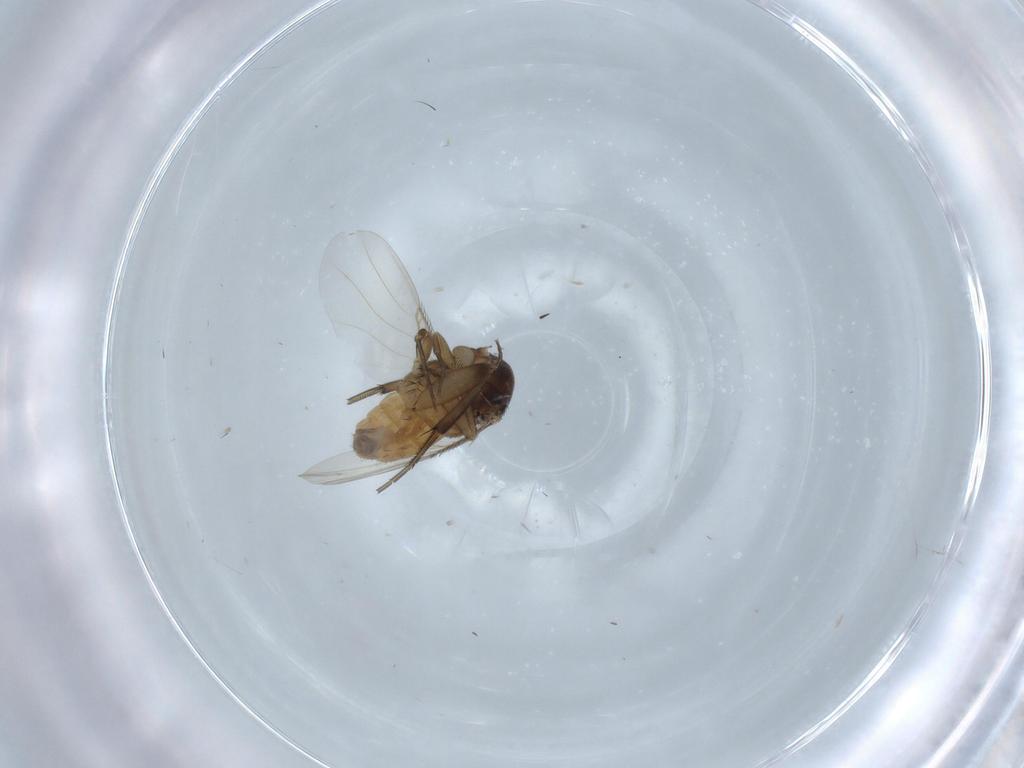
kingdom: Animalia
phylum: Arthropoda
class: Insecta
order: Diptera
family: Phoridae
